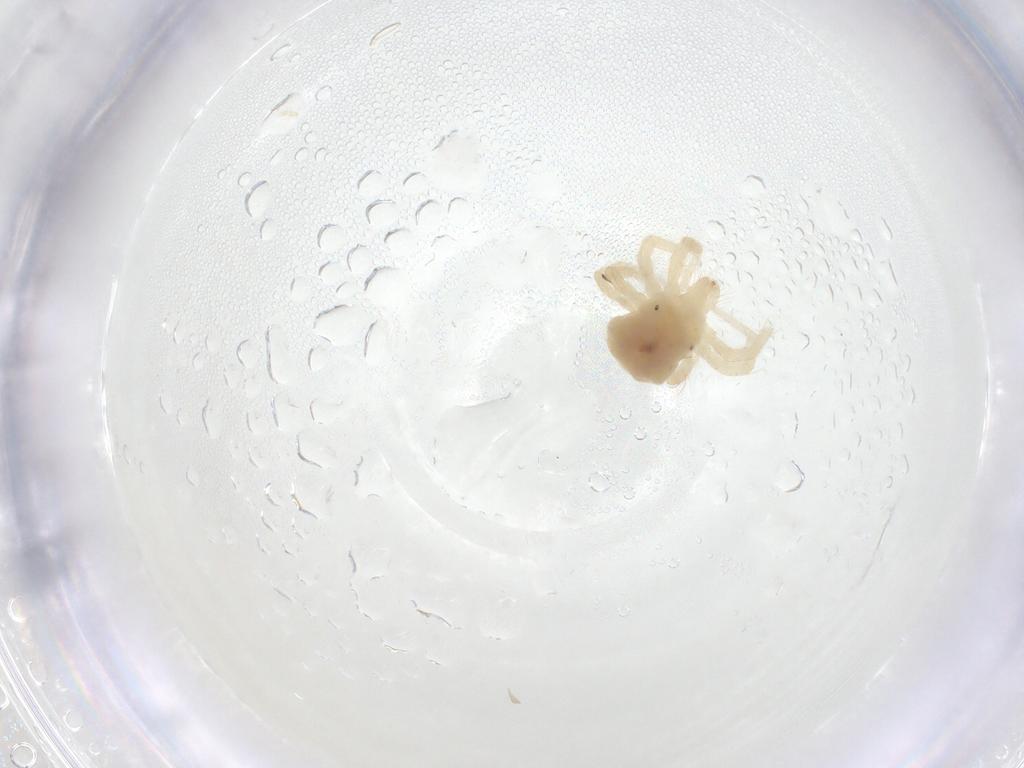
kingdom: Animalia
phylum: Arthropoda
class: Arachnida
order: Trombidiformes
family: Anystidae
